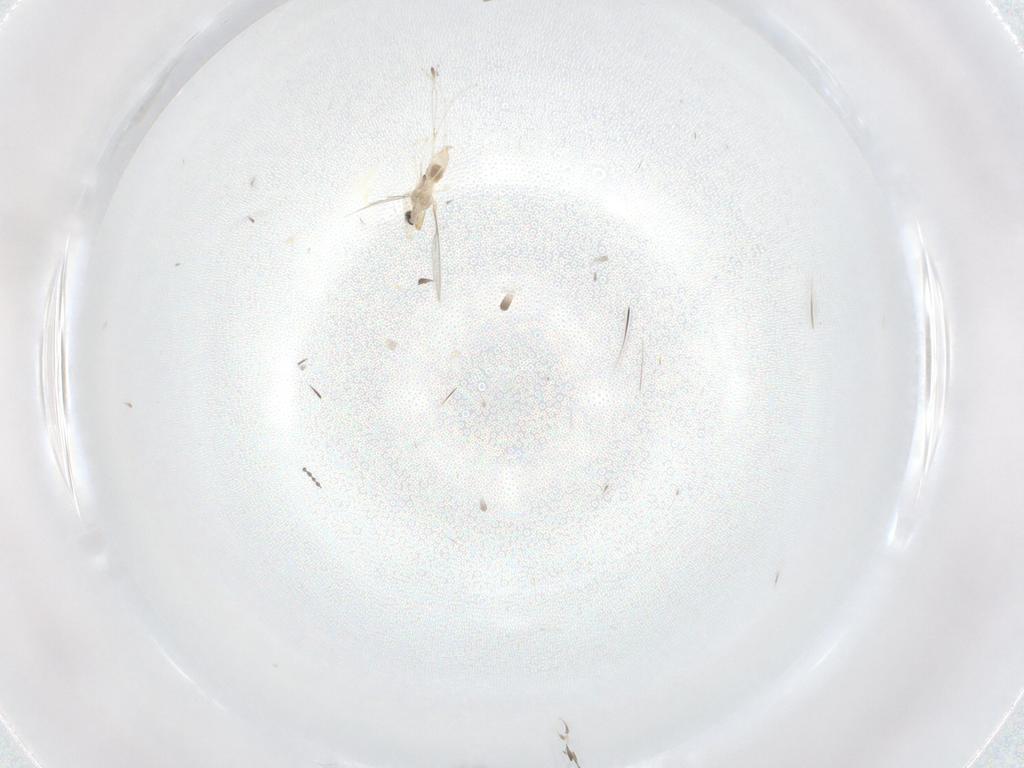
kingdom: Animalia
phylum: Arthropoda
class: Insecta
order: Diptera
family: Cecidomyiidae
